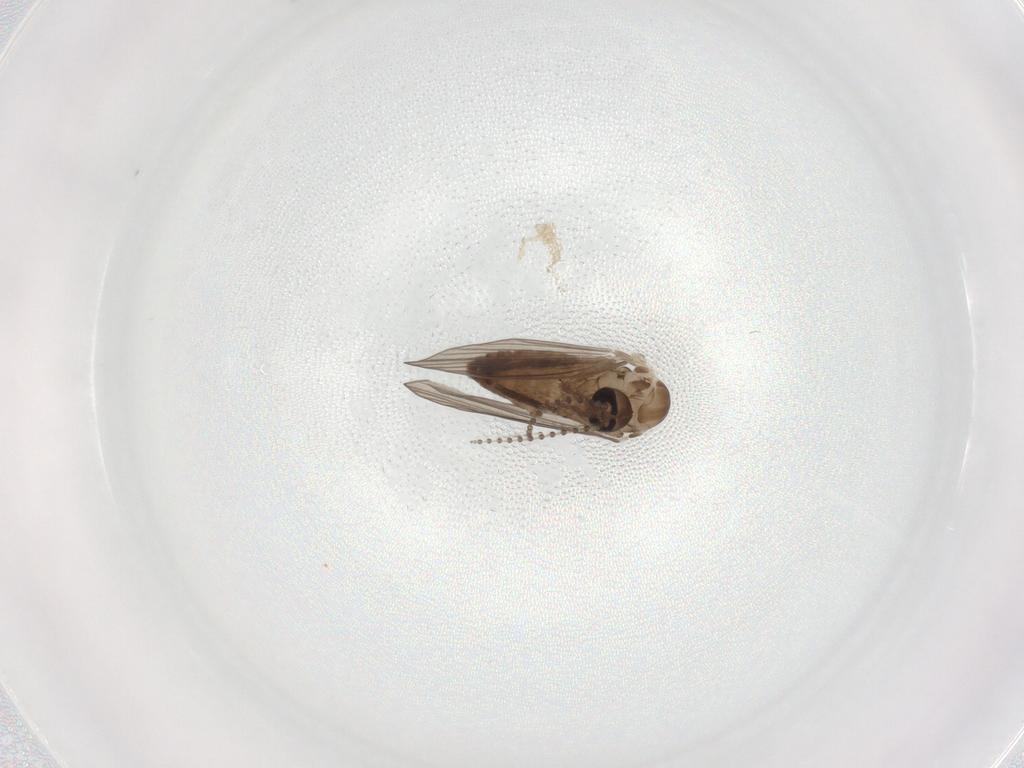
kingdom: Animalia
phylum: Arthropoda
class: Insecta
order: Diptera
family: Psychodidae
